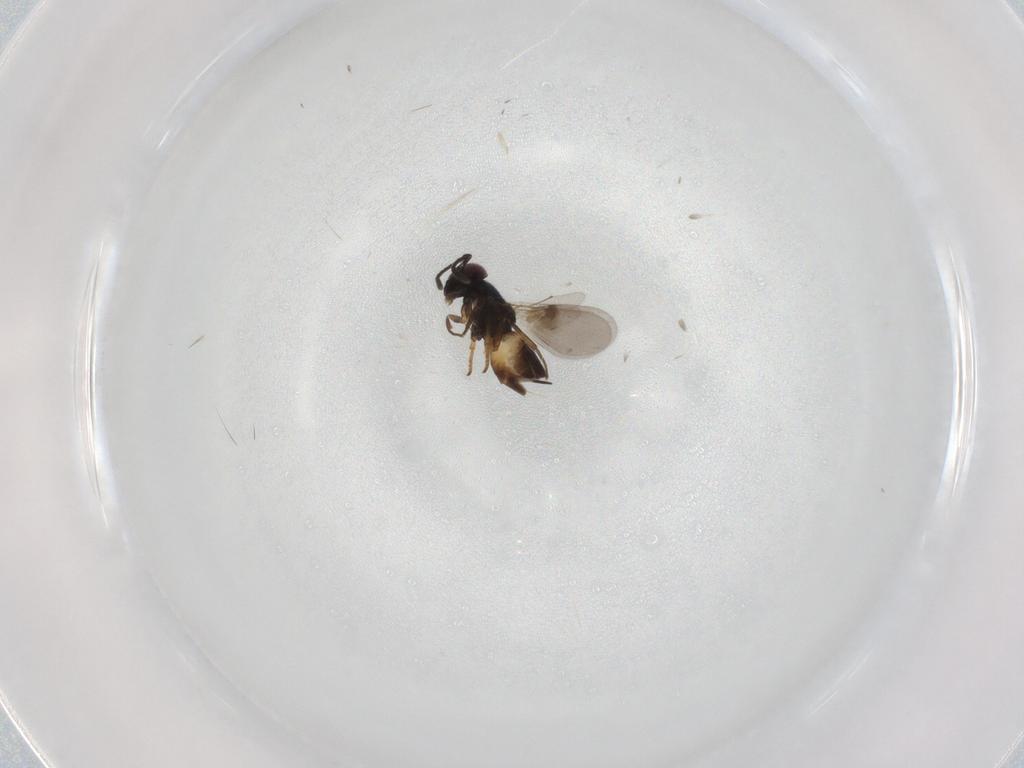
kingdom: Animalia
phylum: Arthropoda
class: Insecta
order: Hymenoptera
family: Encyrtidae
